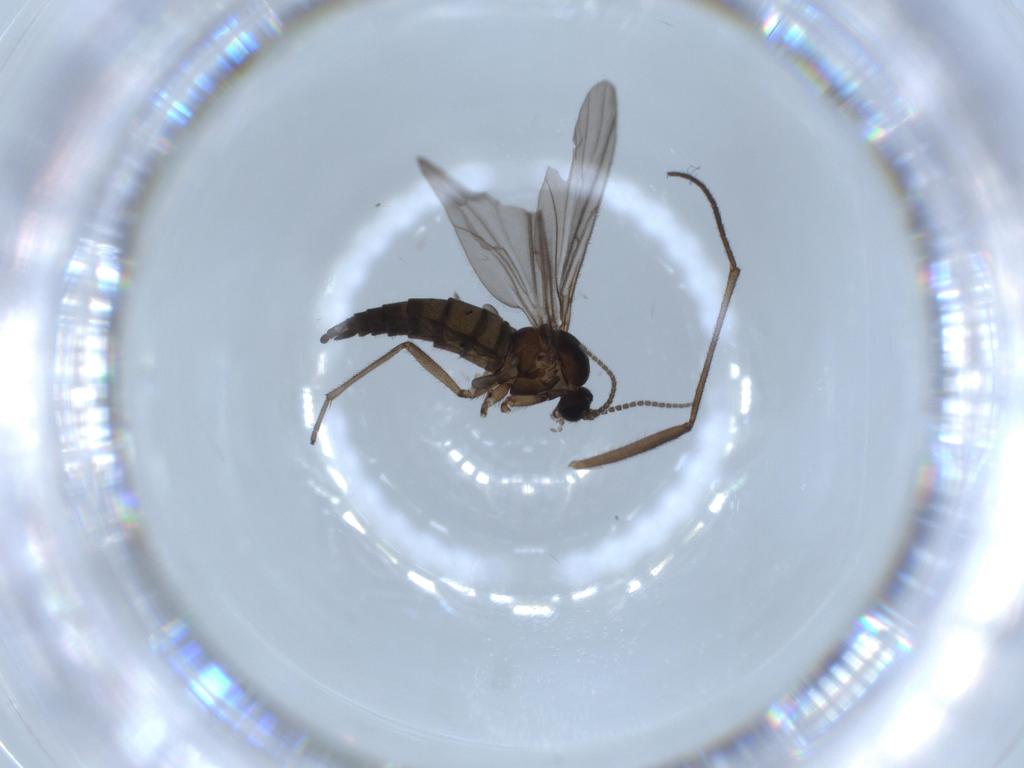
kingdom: Animalia
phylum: Arthropoda
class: Insecta
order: Diptera
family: Sciaridae
